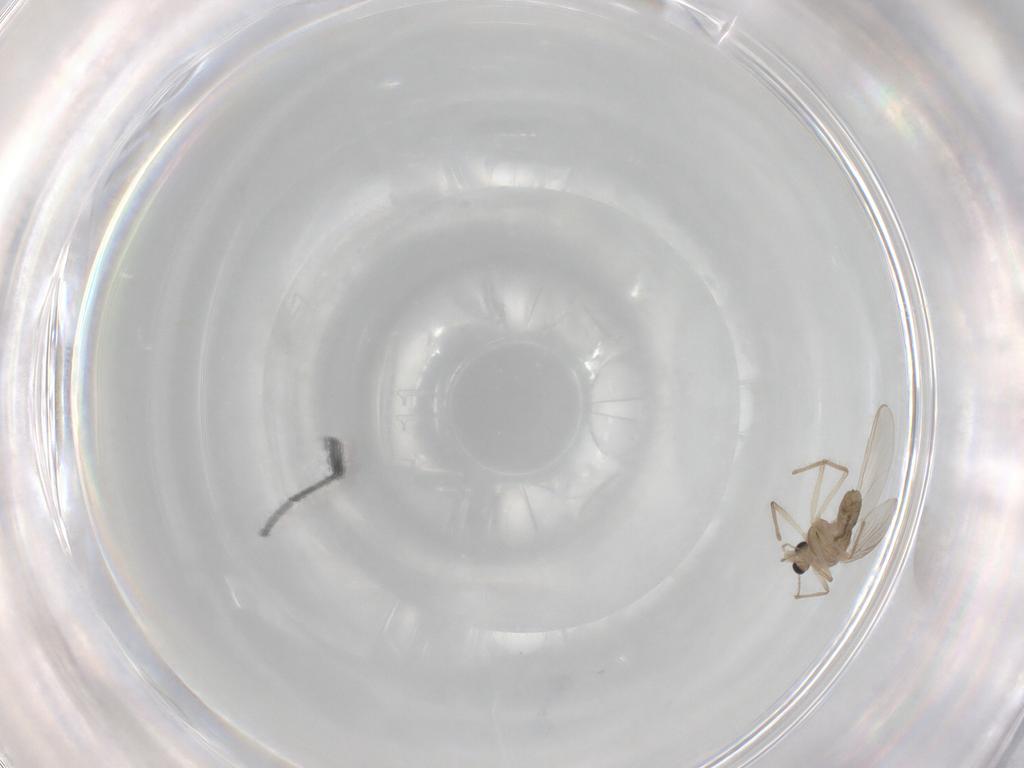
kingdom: Animalia
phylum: Arthropoda
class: Insecta
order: Diptera
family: Chironomidae
